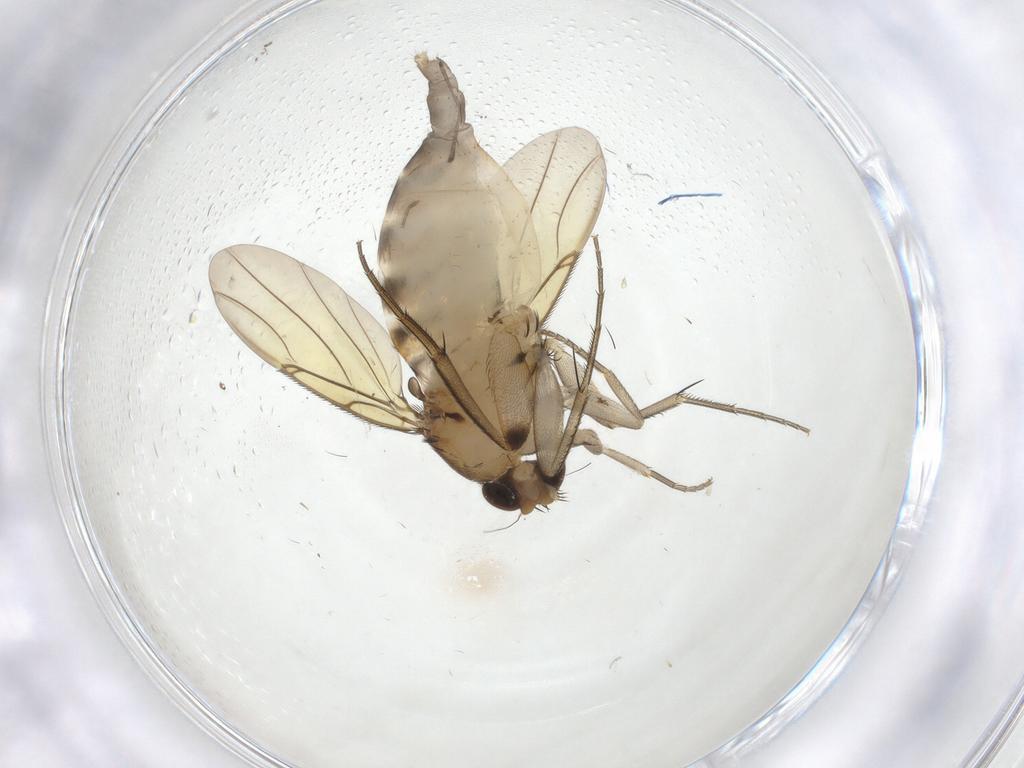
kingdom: Animalia
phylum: Arthropoda
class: Insecta
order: Diptera
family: Phoridae
